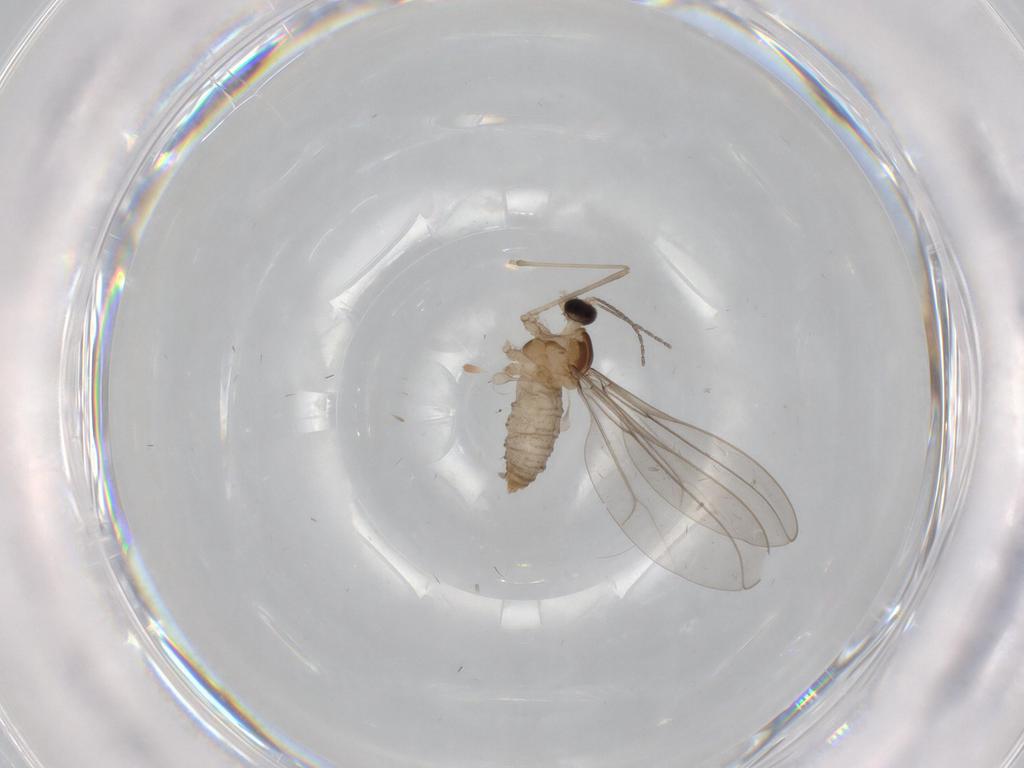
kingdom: Animalia
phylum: Arthropoda
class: Insecta
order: Diptera
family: Cecidomyiidae
